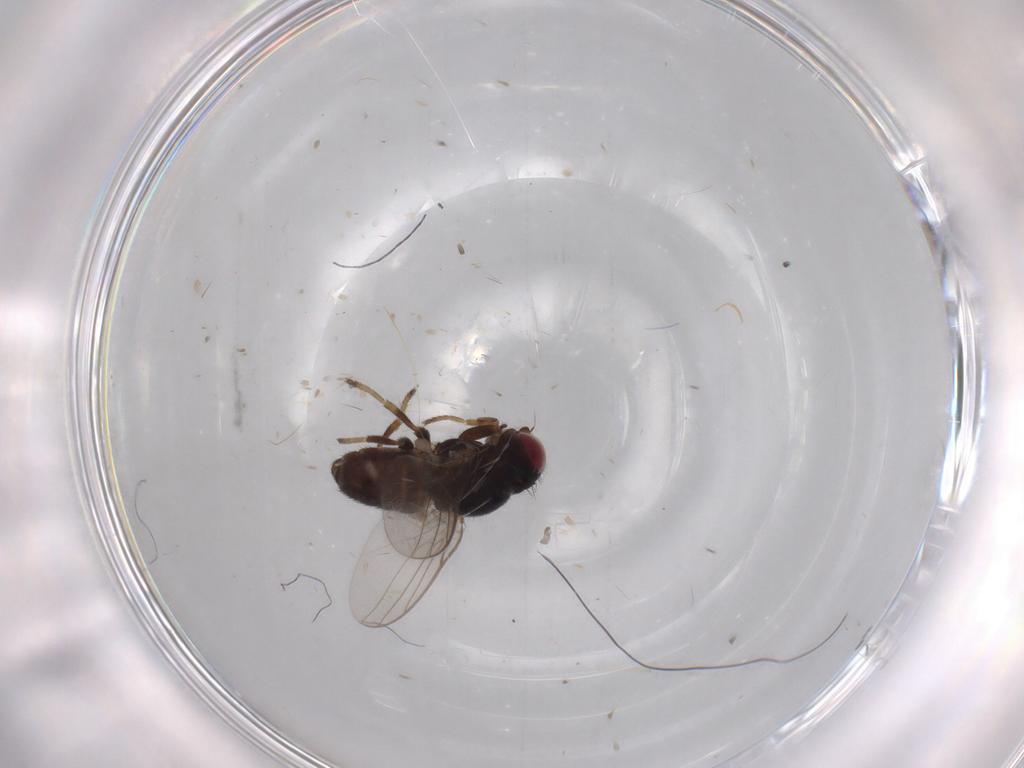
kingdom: Animalia
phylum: Arthropoda
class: Insecta
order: Diptera
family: Chloropidae
